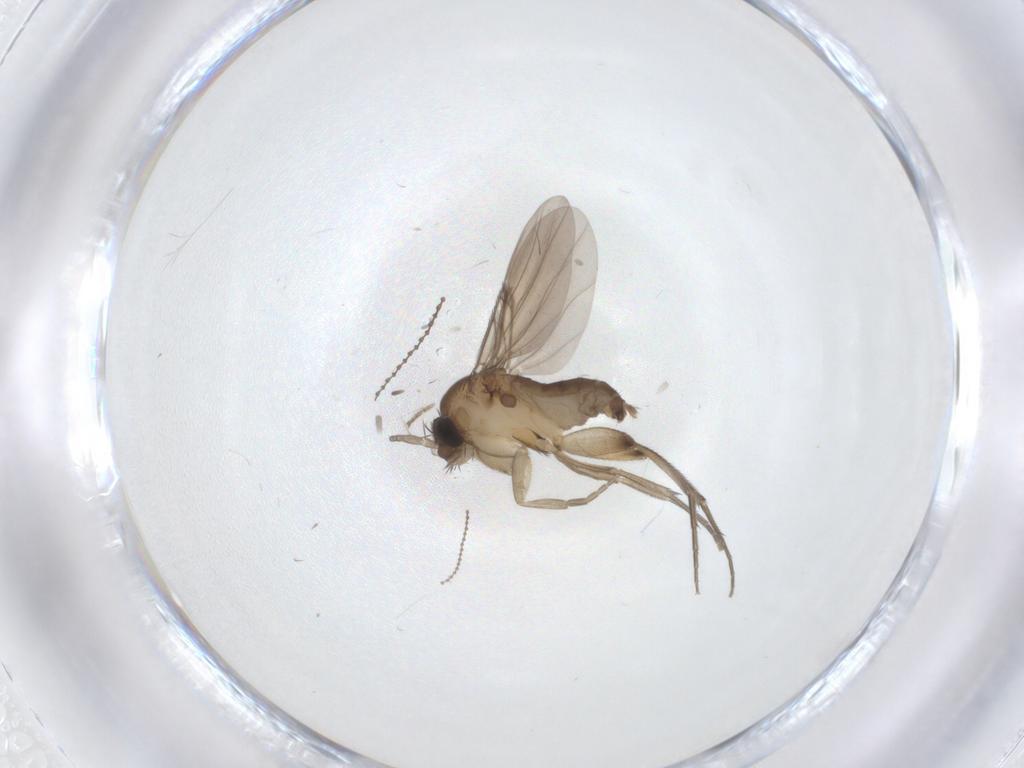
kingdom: Animalia
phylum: Arthropoda
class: Insecta
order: Diptera
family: Phoridae
